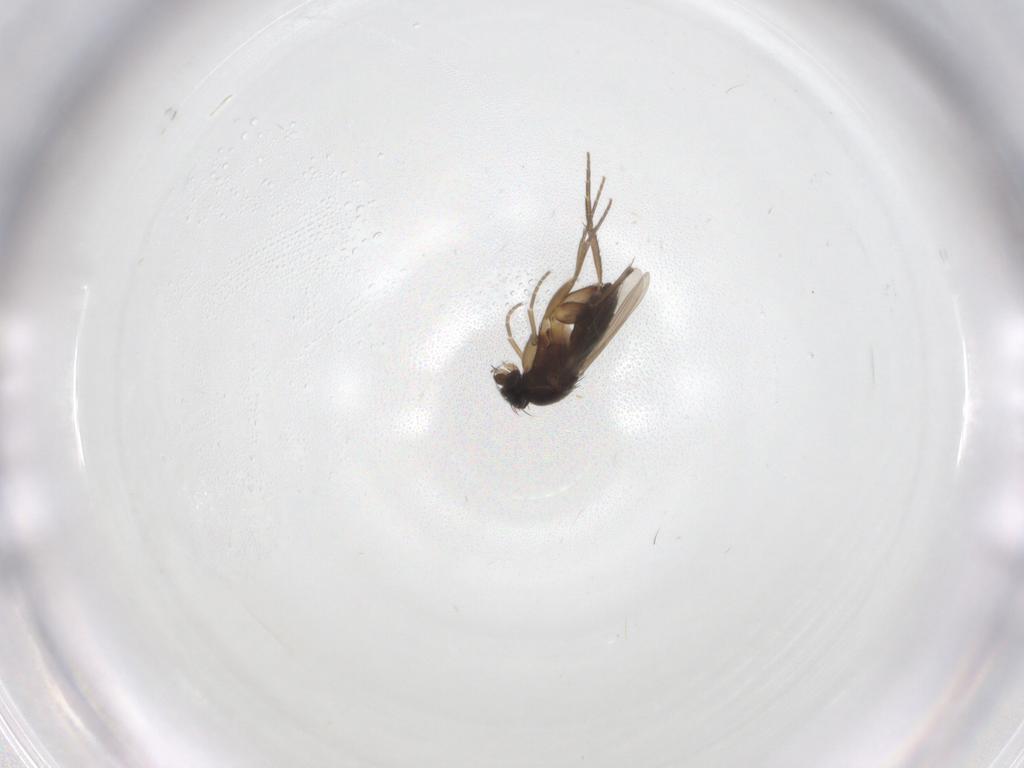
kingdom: Animalia
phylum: Arthropoda
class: Insecta
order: Diptera
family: Phoridae
